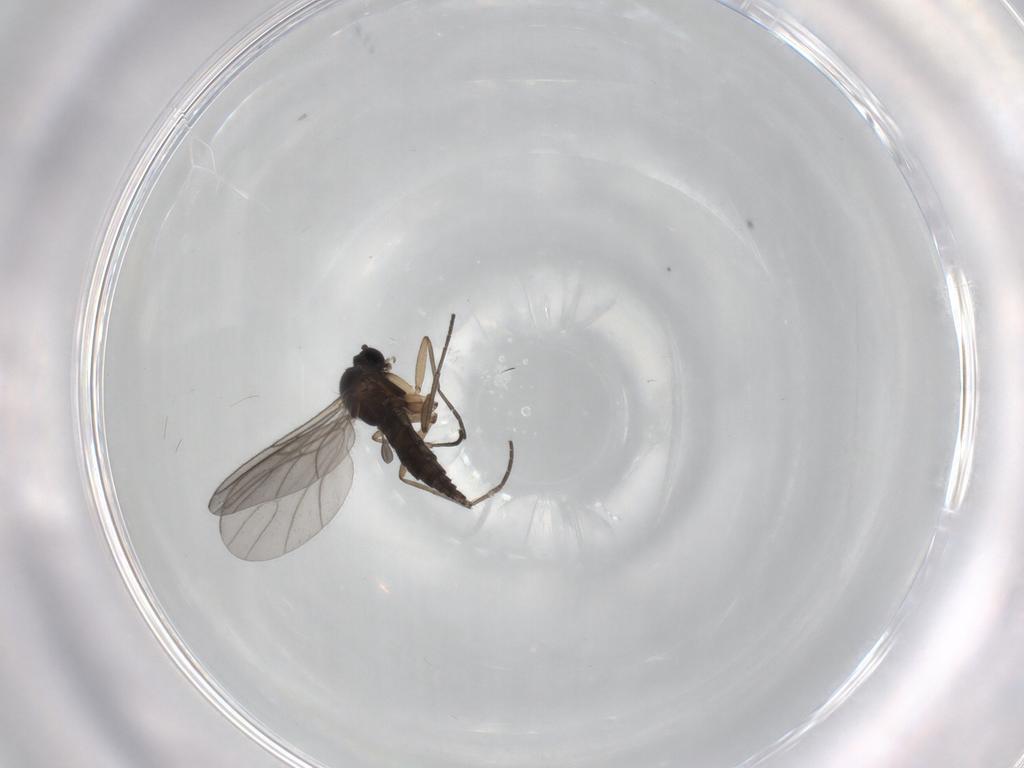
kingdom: Animalia
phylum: Arthropoda
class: Insecta
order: Diptera
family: Sciaridae
